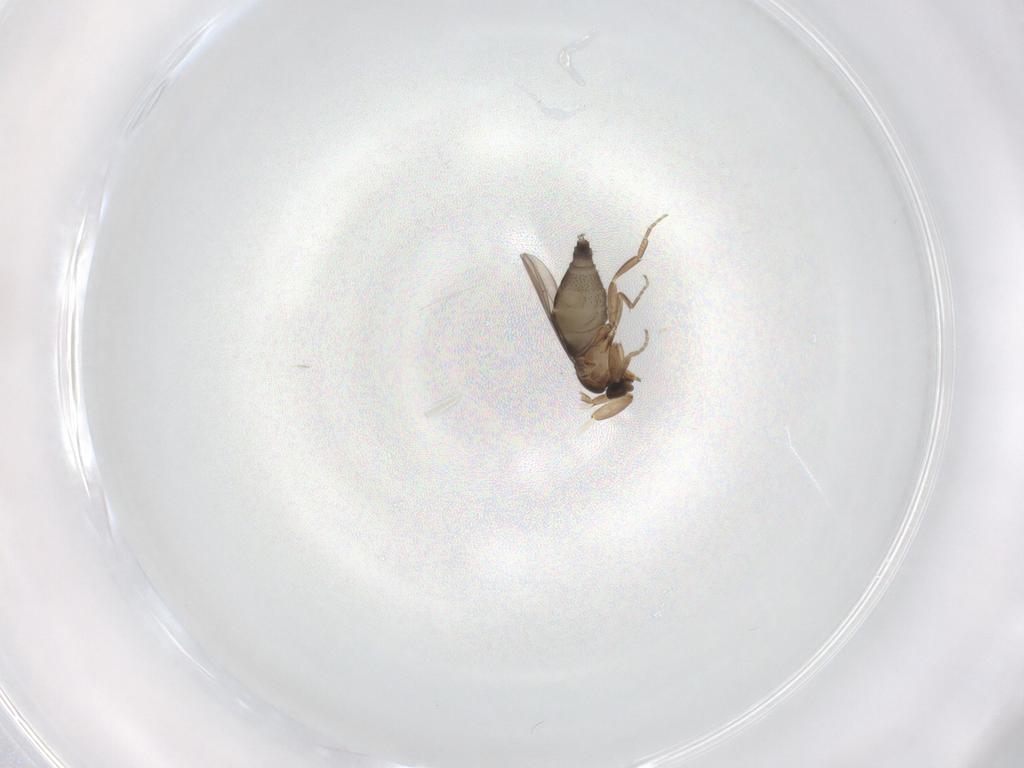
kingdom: Animalia
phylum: Arthropoda
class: Insecta
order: Diptera
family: Phoridae
